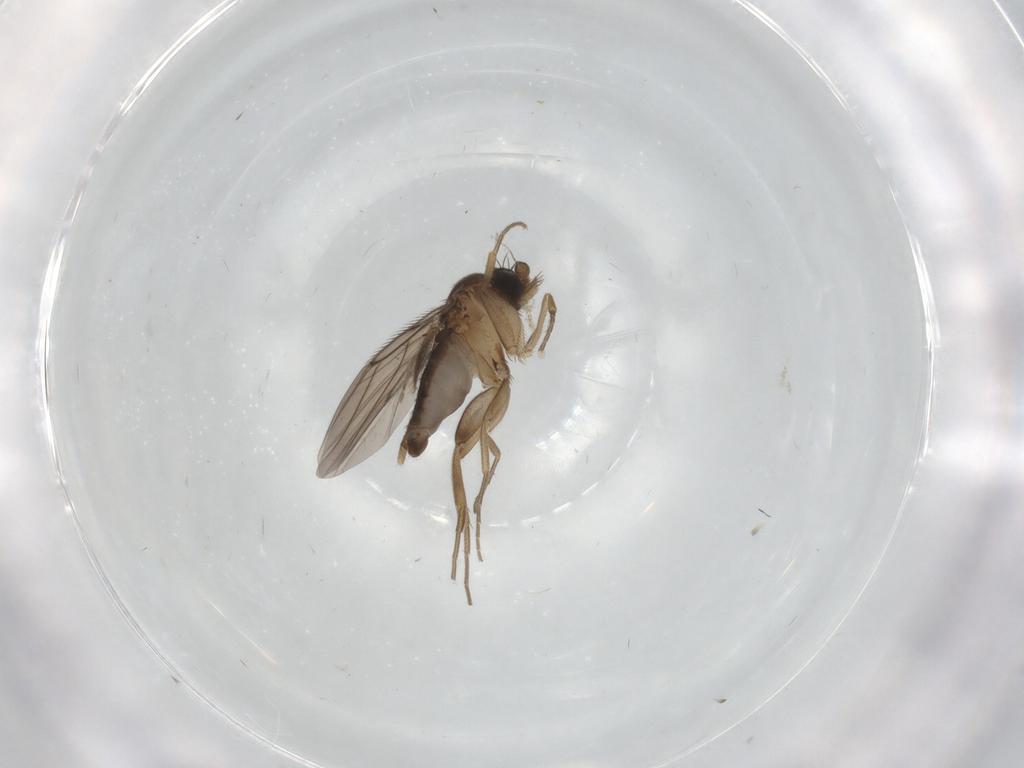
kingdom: Animalia
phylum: Arthropoda
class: Insecta
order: Diptera
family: Ceratopogonidae
